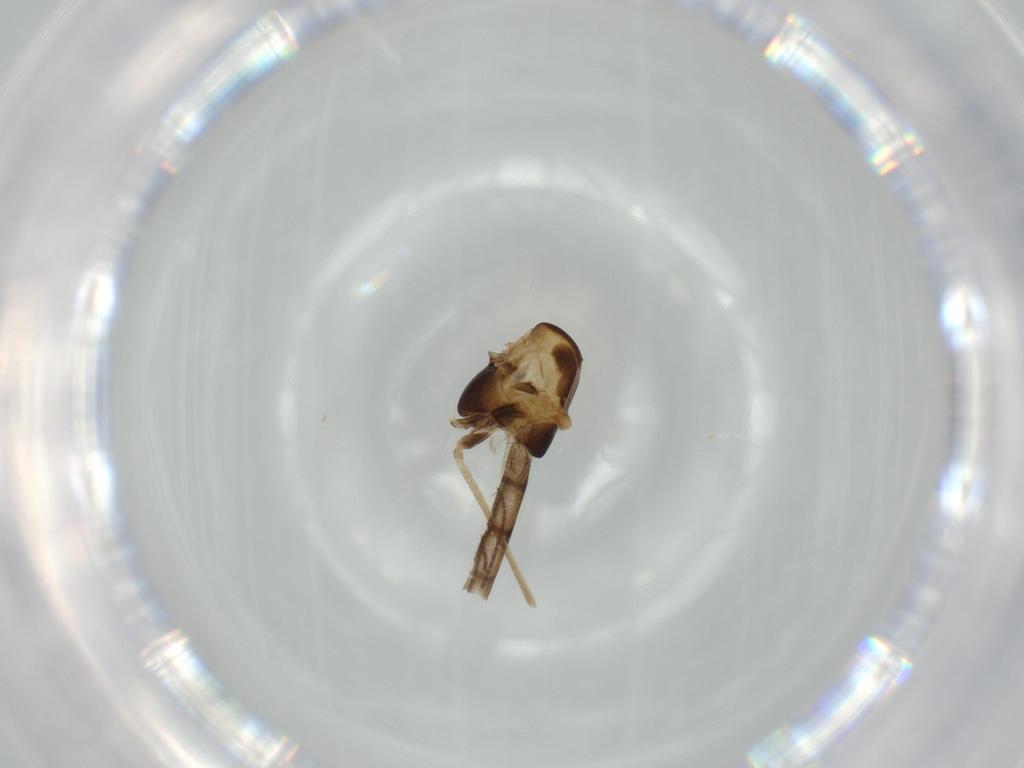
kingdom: Animalia
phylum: Arthropoda
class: Insecta
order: Diptera
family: Chironomidae
